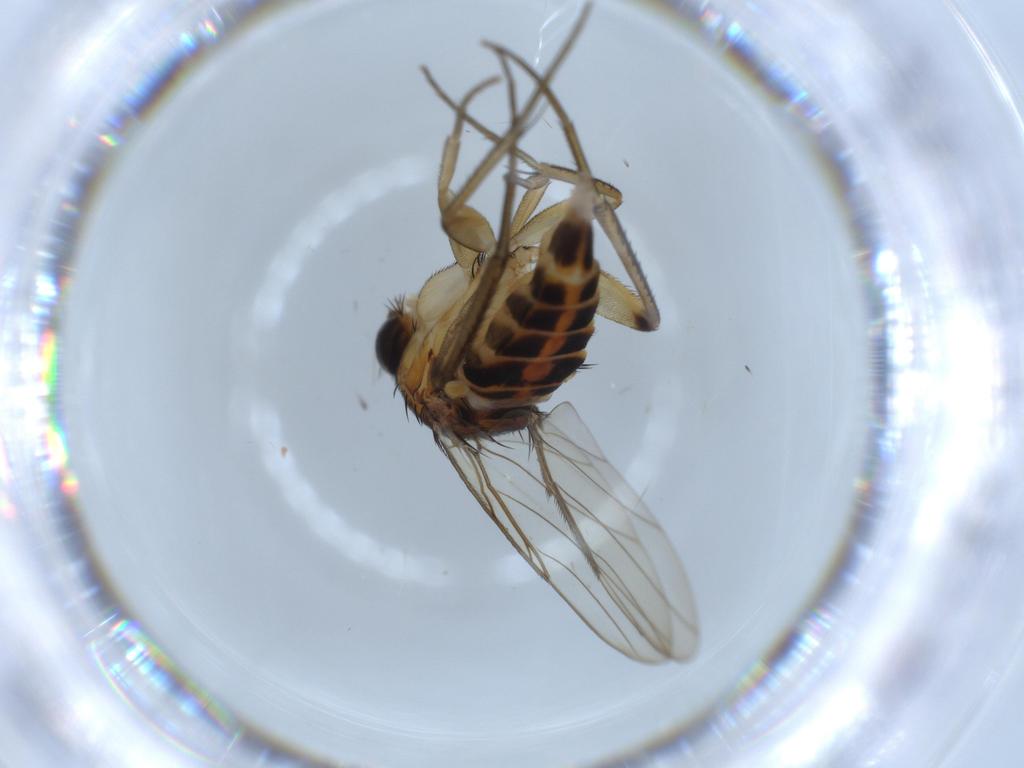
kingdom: Animalia
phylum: Arthropoda
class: Insecta
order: Diptera
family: Phoridae
